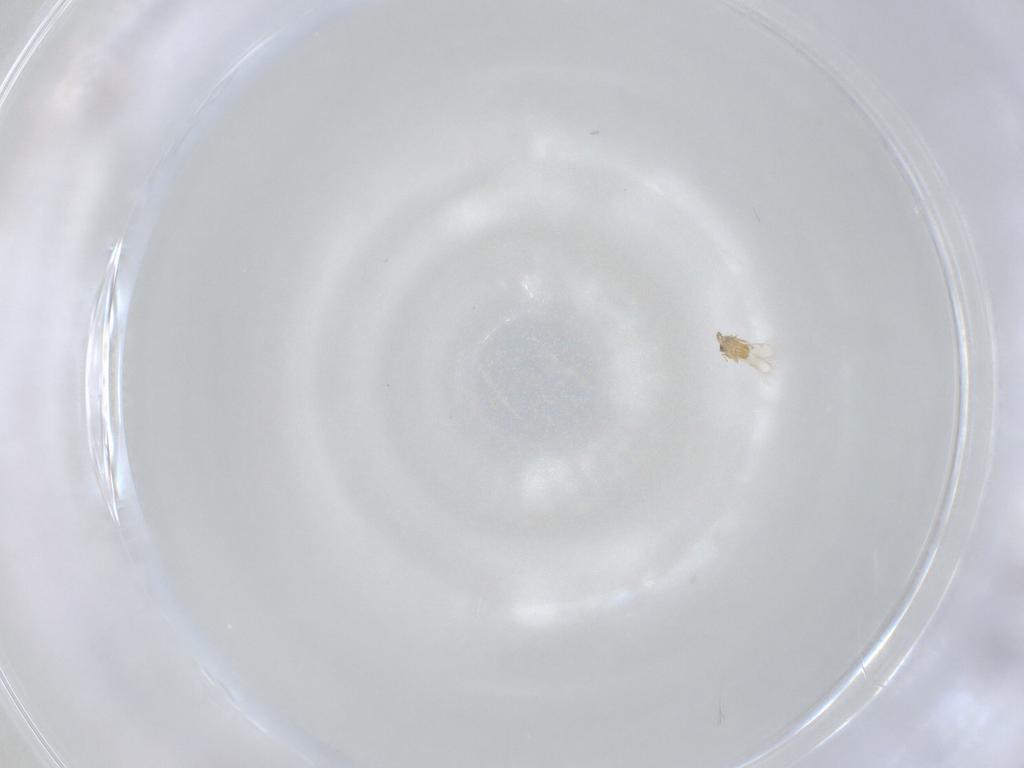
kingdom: Animalia
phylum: Arthropoda
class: Insecta
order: Hymenoptera
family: Trichogrammatidae
